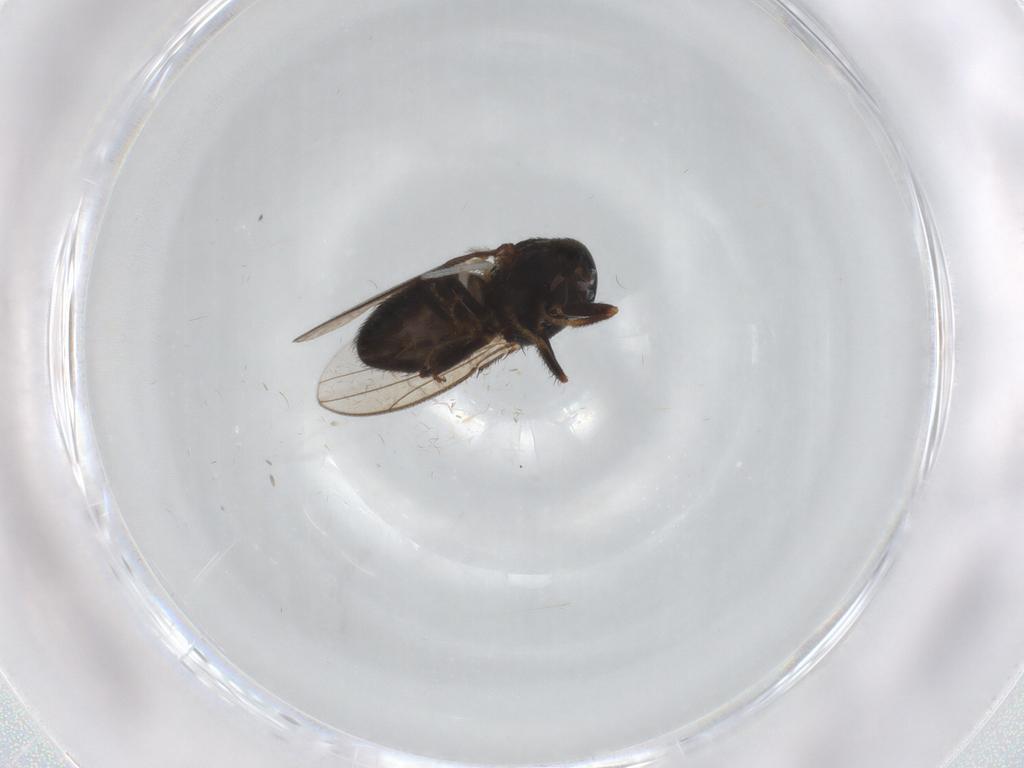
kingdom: Animalia
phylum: Arthropoda
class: Insecta
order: Diptera
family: Ephydridae
